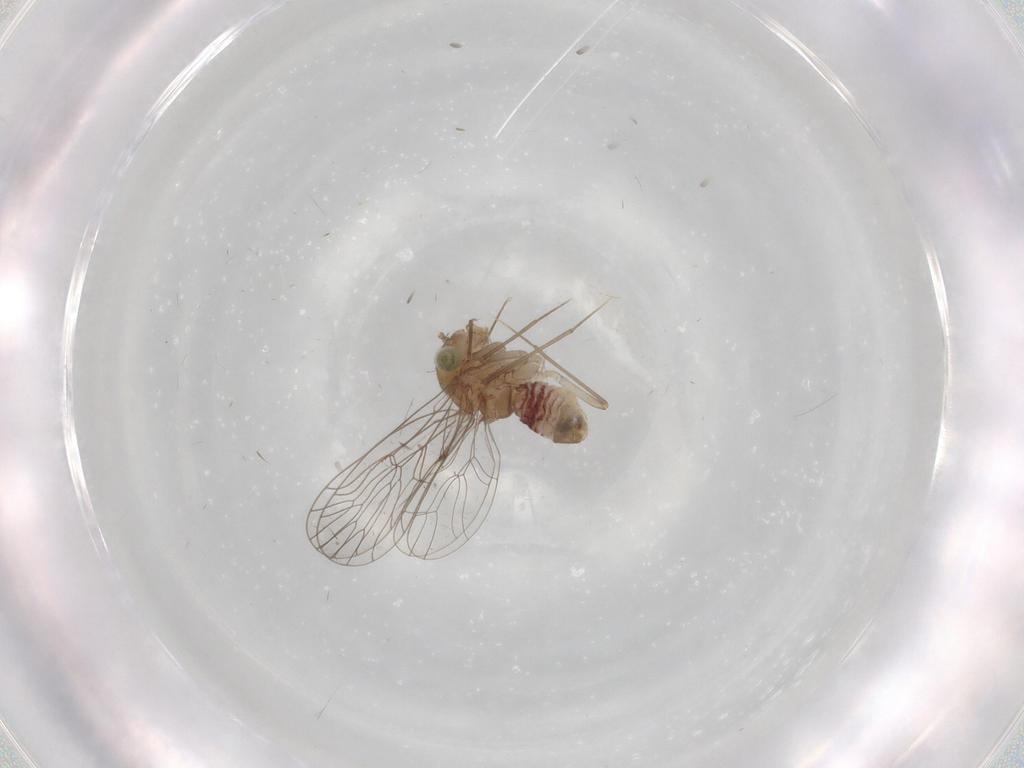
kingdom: Animalia
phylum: Arthropoda
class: Insecta
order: Psocodea
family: Amphientomidae
